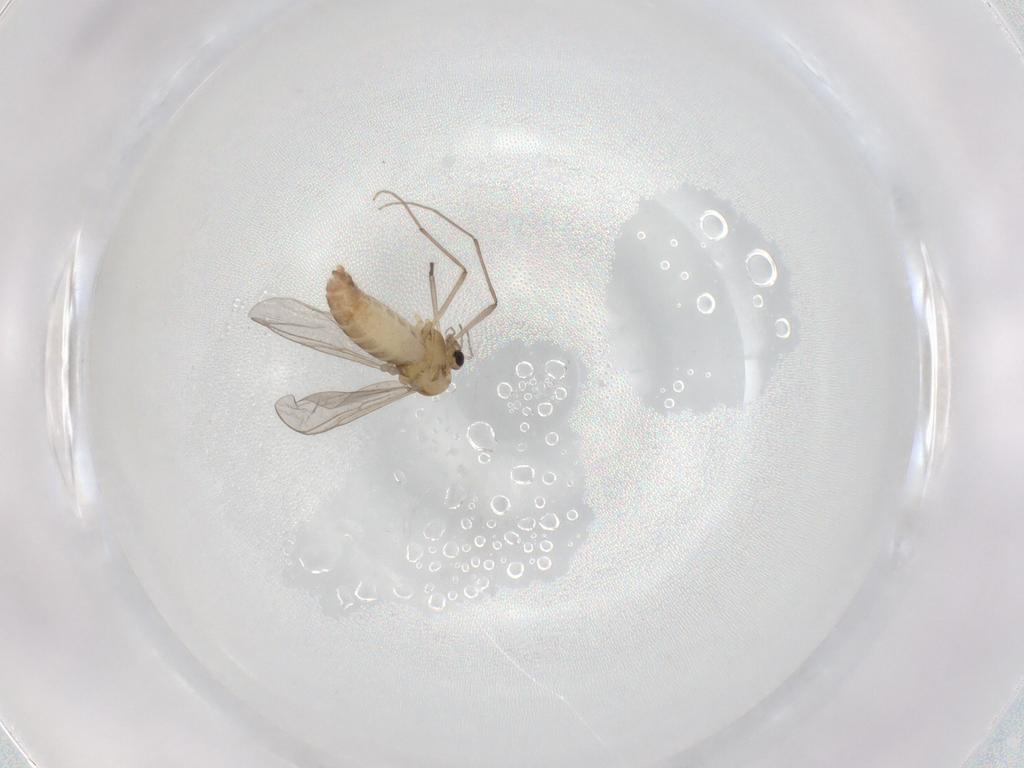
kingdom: Animalia
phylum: Arthropoda
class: Insecta
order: Diptera
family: Chironomidae
